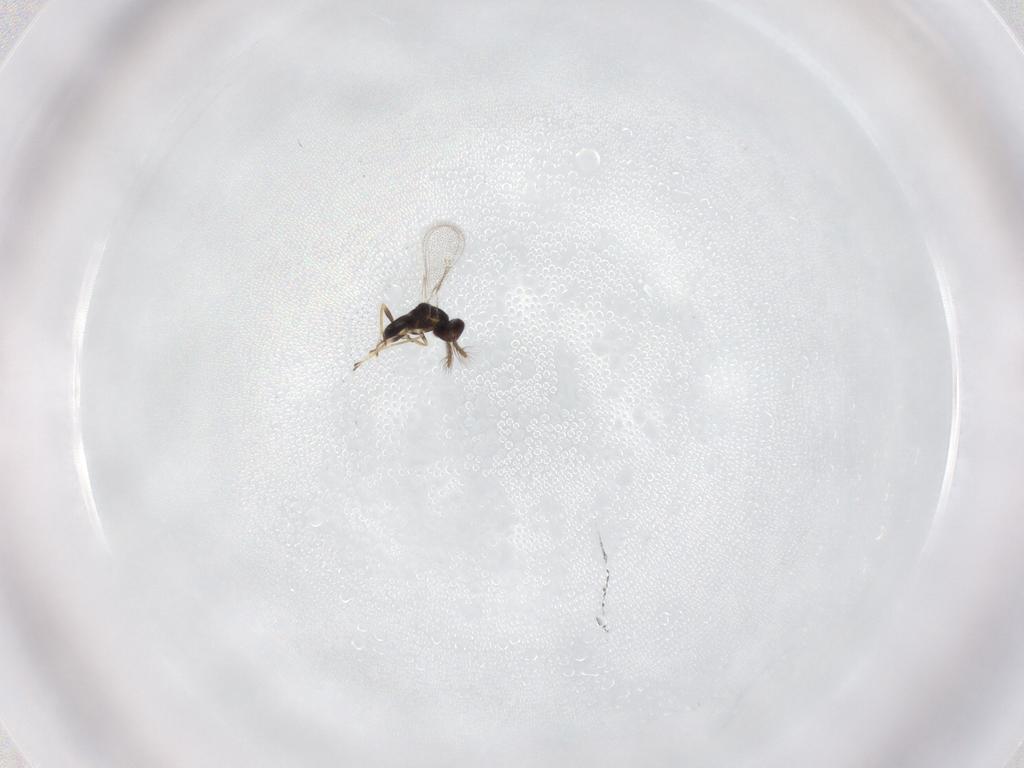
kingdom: Animalia
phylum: Arthropoda
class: Insecta
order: Hymenoptera
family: Eulophidae
